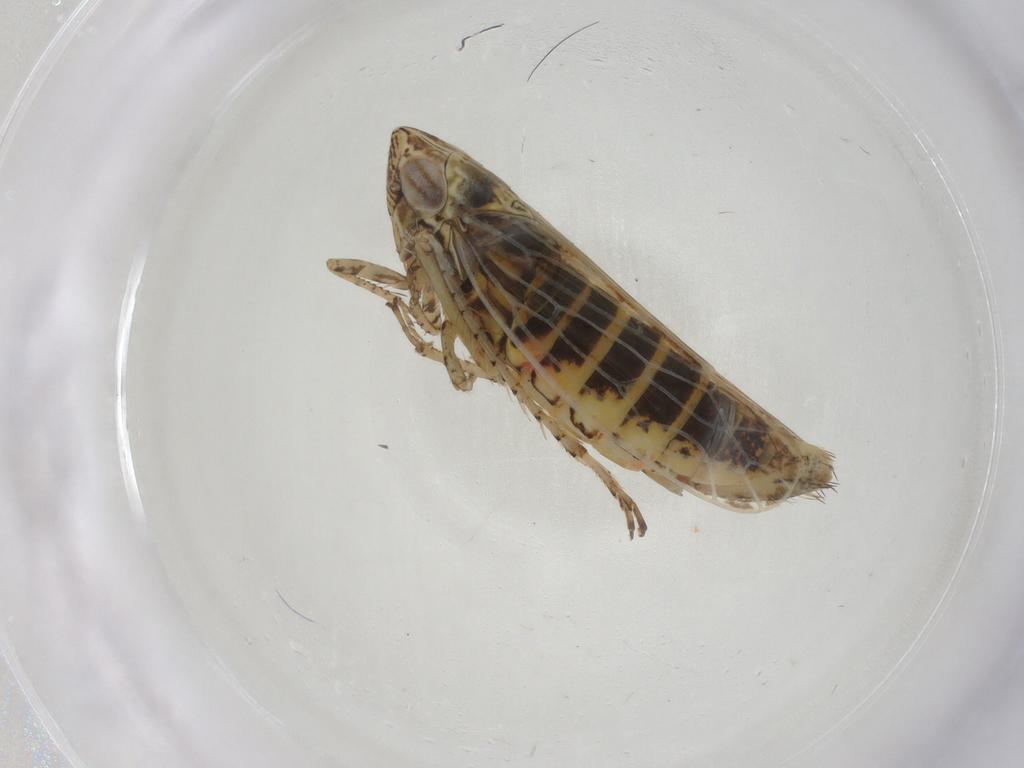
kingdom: Animalia
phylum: Arthropoda
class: Insecta
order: Hemiptera
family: Cicadellidae
